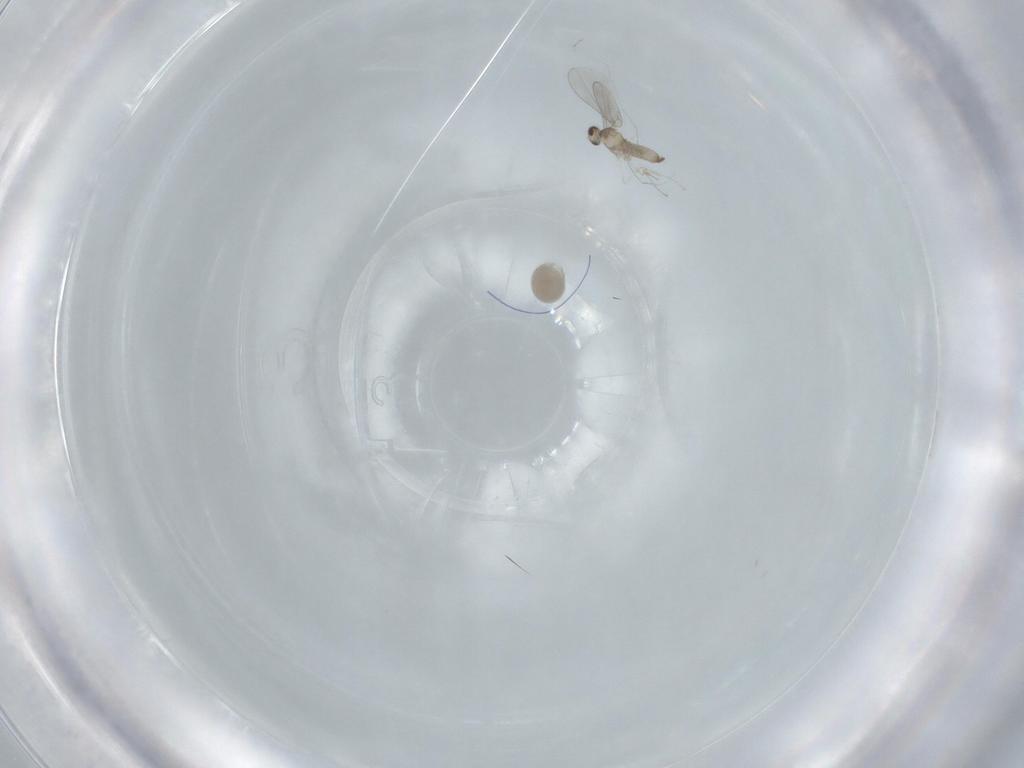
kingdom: Animalia
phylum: Arthropoda
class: Insecta
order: Diptera
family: Cecidomyiidae
